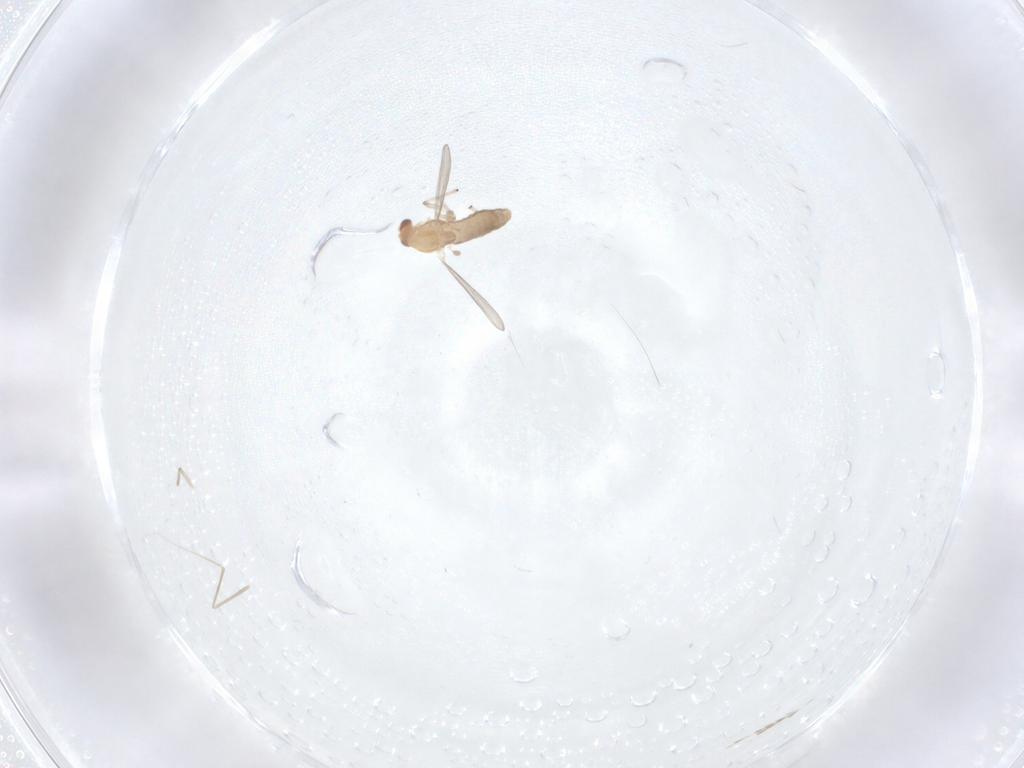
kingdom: Animalia
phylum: Arthropoda
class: Insecta
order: Diptera
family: Chironomidae
